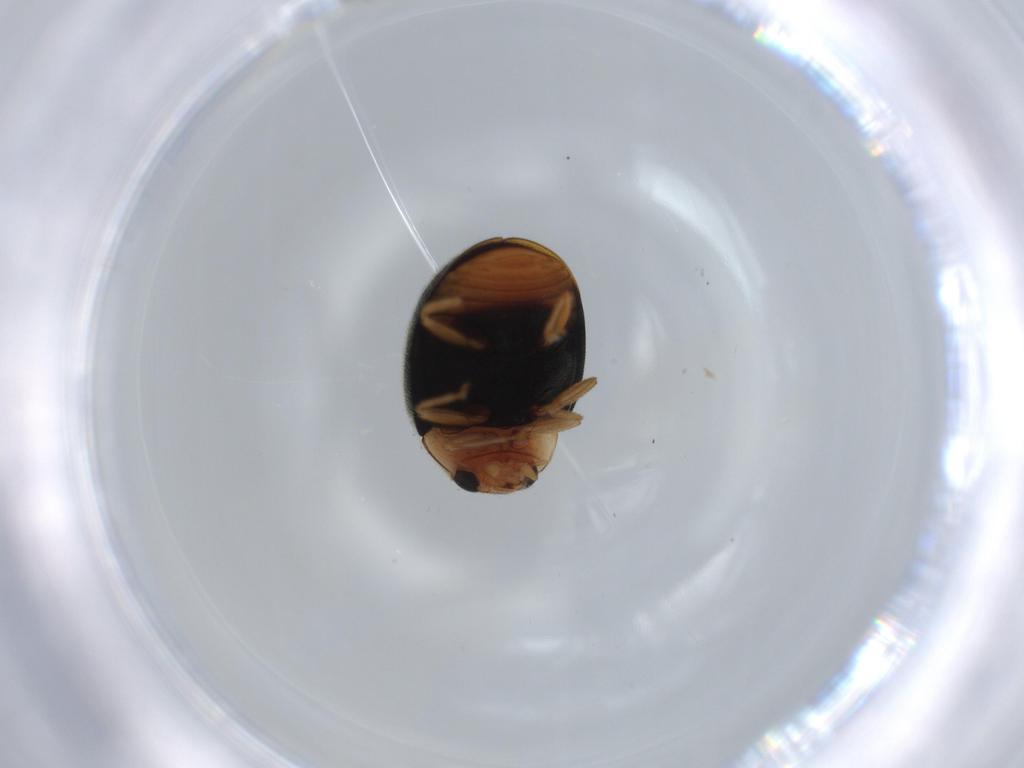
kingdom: Animalia
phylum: Arthropoda
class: Insecta
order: Coleoptera
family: Coccinellidae
